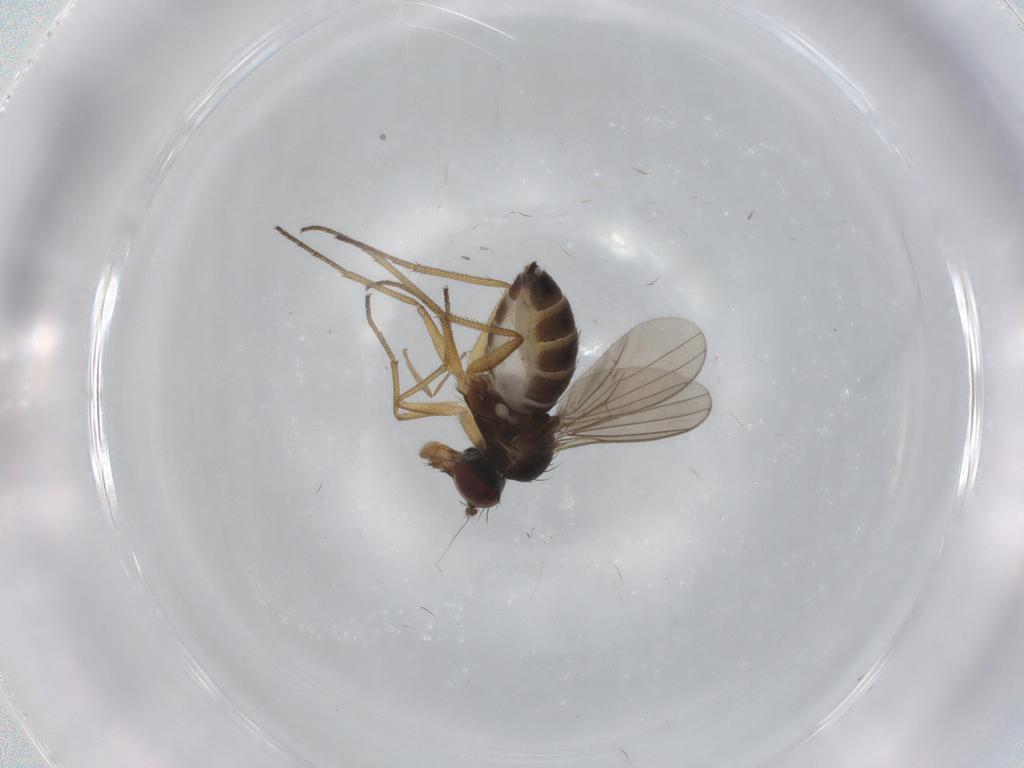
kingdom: Animalia
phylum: Arthropoda
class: Insecta
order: Diptera
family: Dolichopodidae
